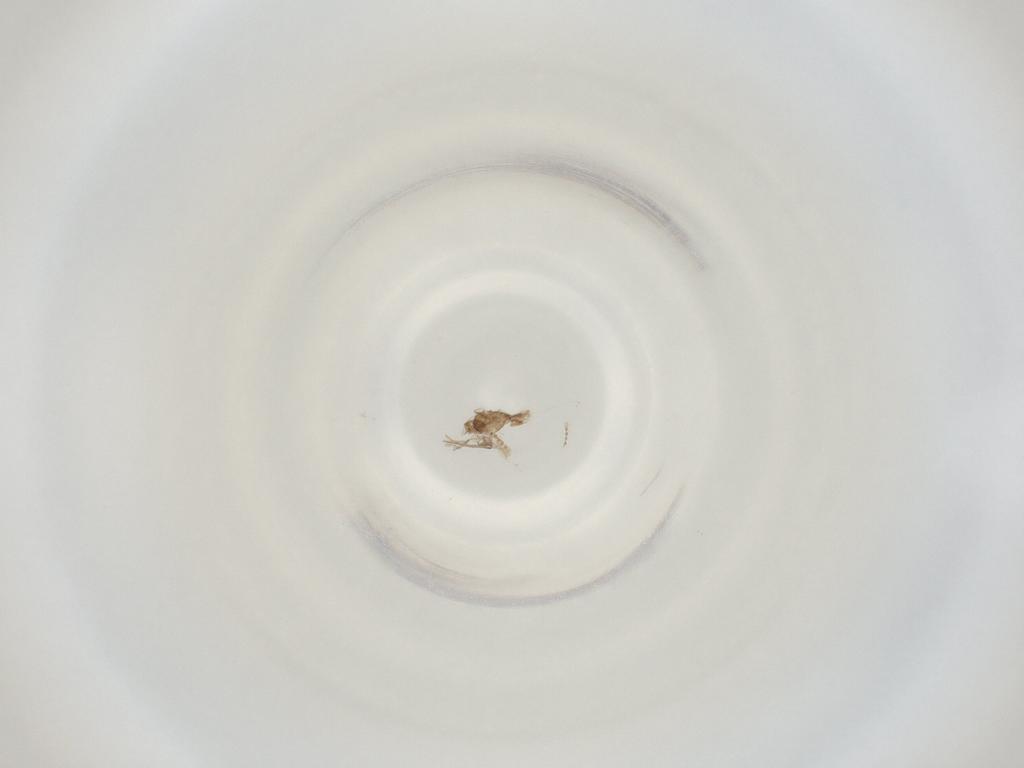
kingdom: Animalia
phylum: Arthropoda
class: Insecta
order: Diptera
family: Cecidomyiidae
